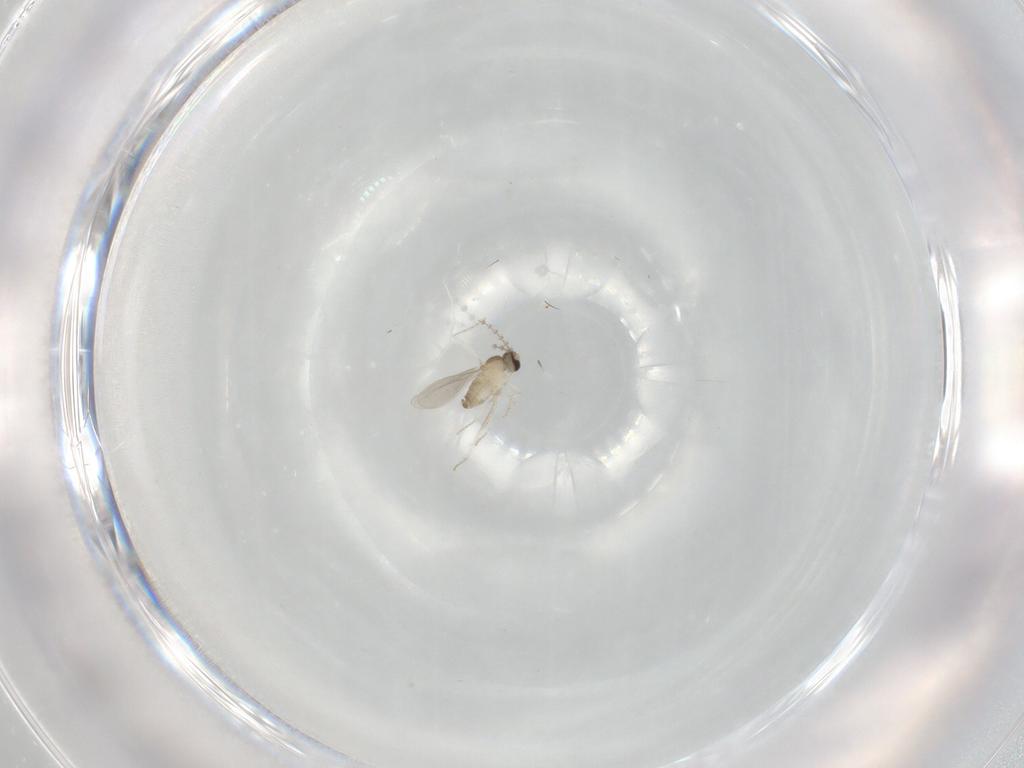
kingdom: Animalia
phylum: Arthropoda
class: Insecta
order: Diptera
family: Cecidomyiidae
